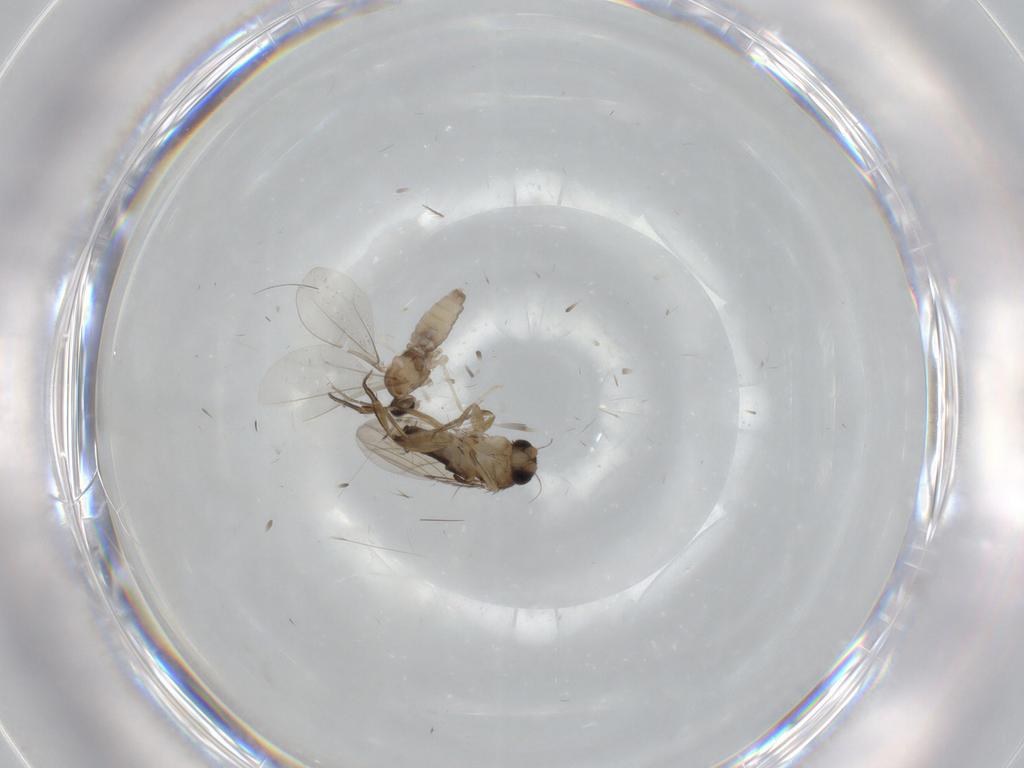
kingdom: Animalia
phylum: Arthropoda
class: Insecta
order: Diptera
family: Phoridae
